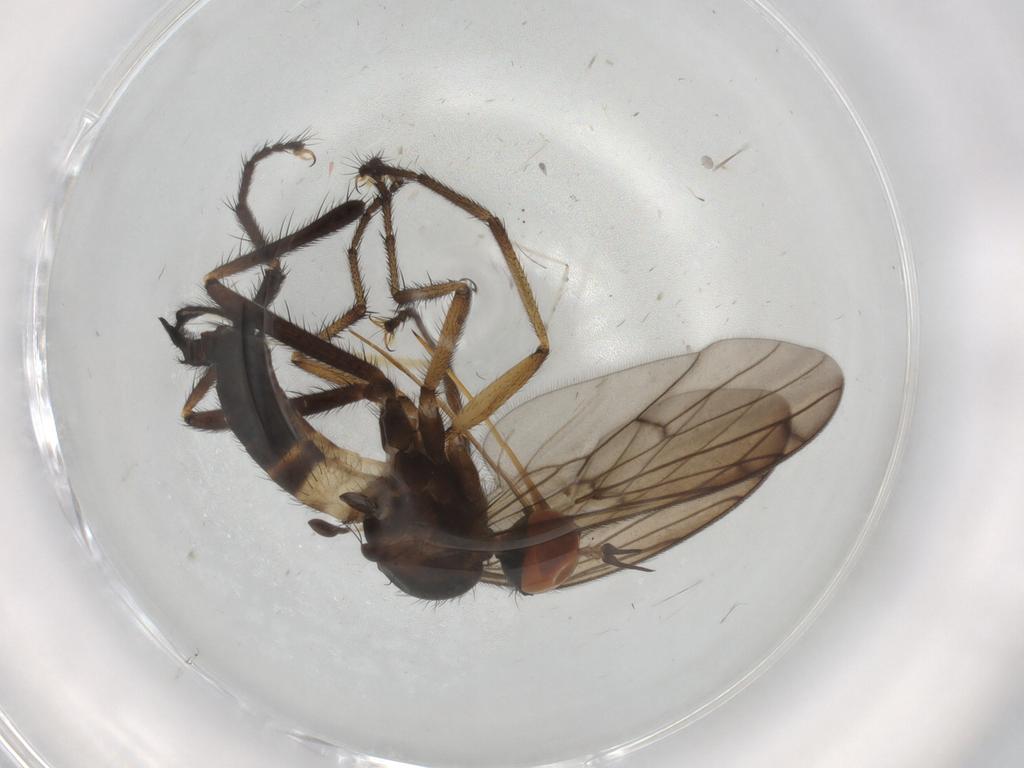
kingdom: Animalia
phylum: Arthropoda
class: Insecta
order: Diptera
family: Empididae
